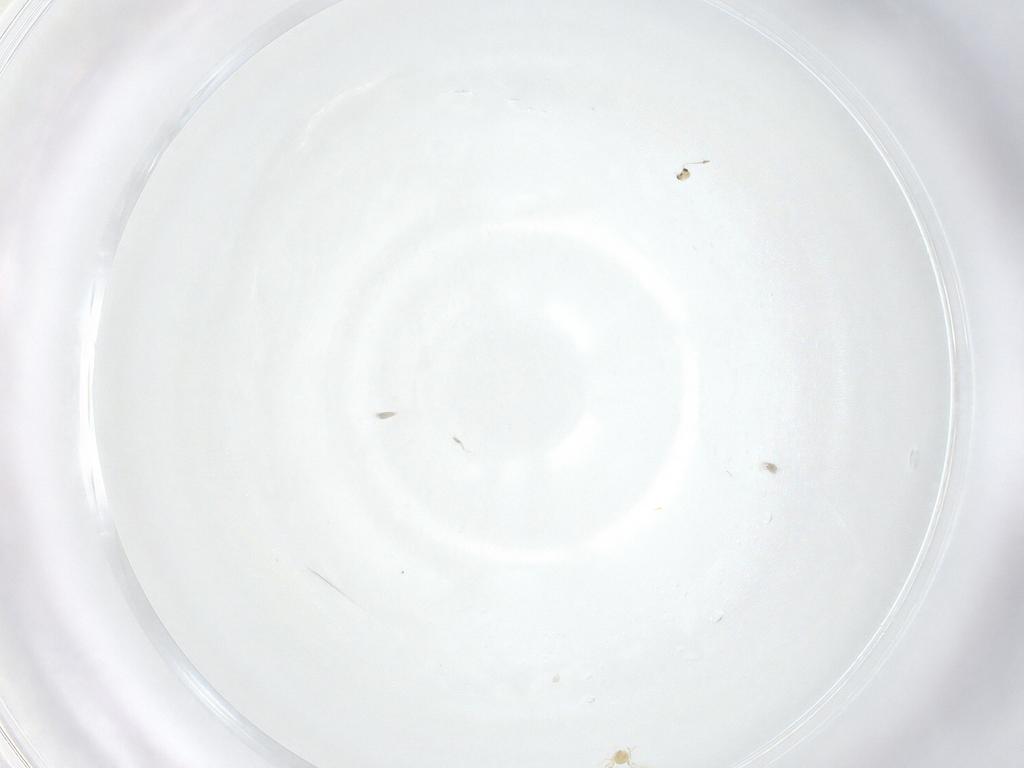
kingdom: Animalia
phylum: Arthropoda
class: Insecta
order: Hymenoptera
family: Mymaridae
